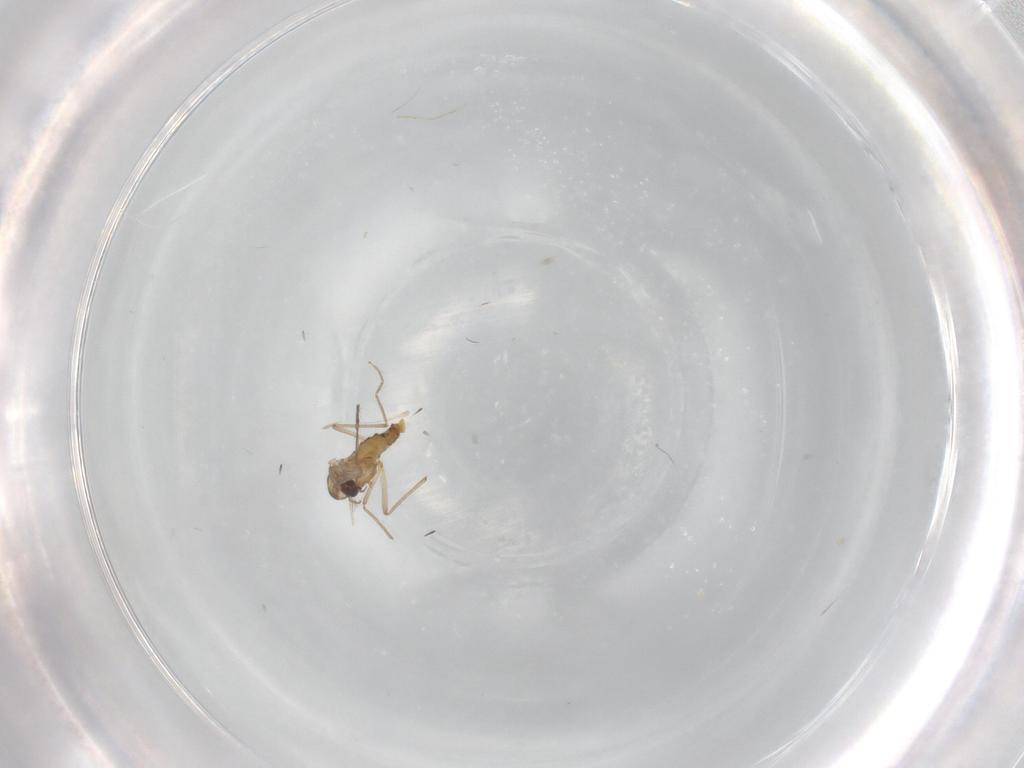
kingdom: Animalia
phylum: Arthropoda
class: Insecta
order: Diptera
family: Cecidomyiidae
